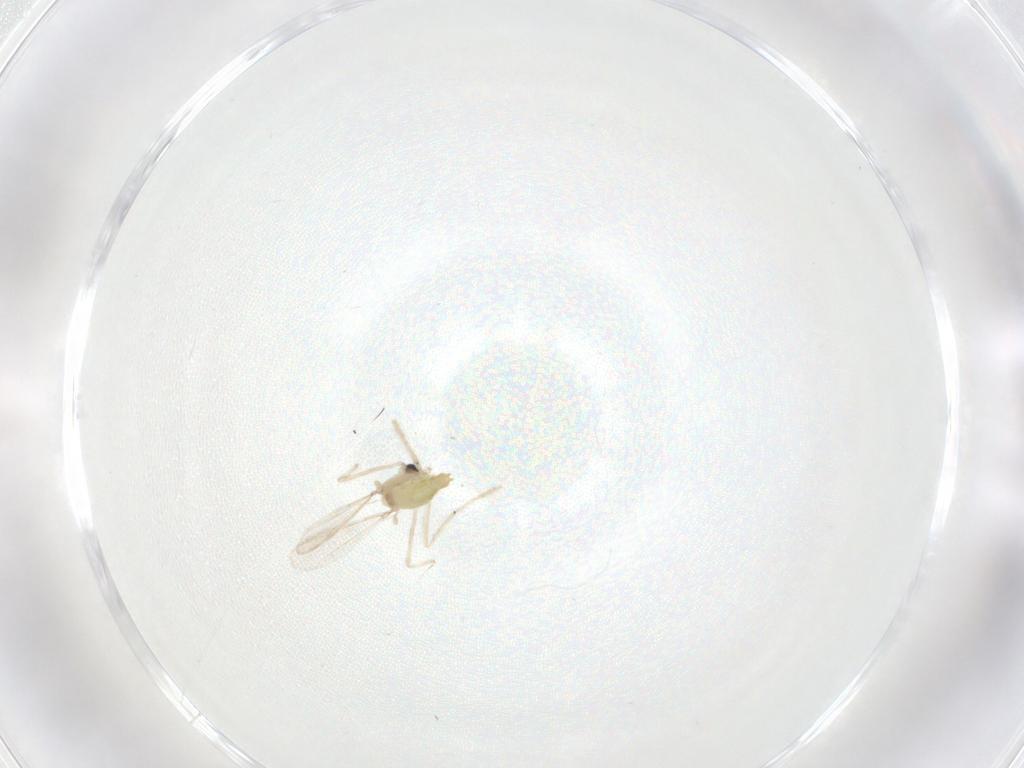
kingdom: Animalia
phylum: Arthropoda
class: Insecta
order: Diptera
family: Chironomidae
